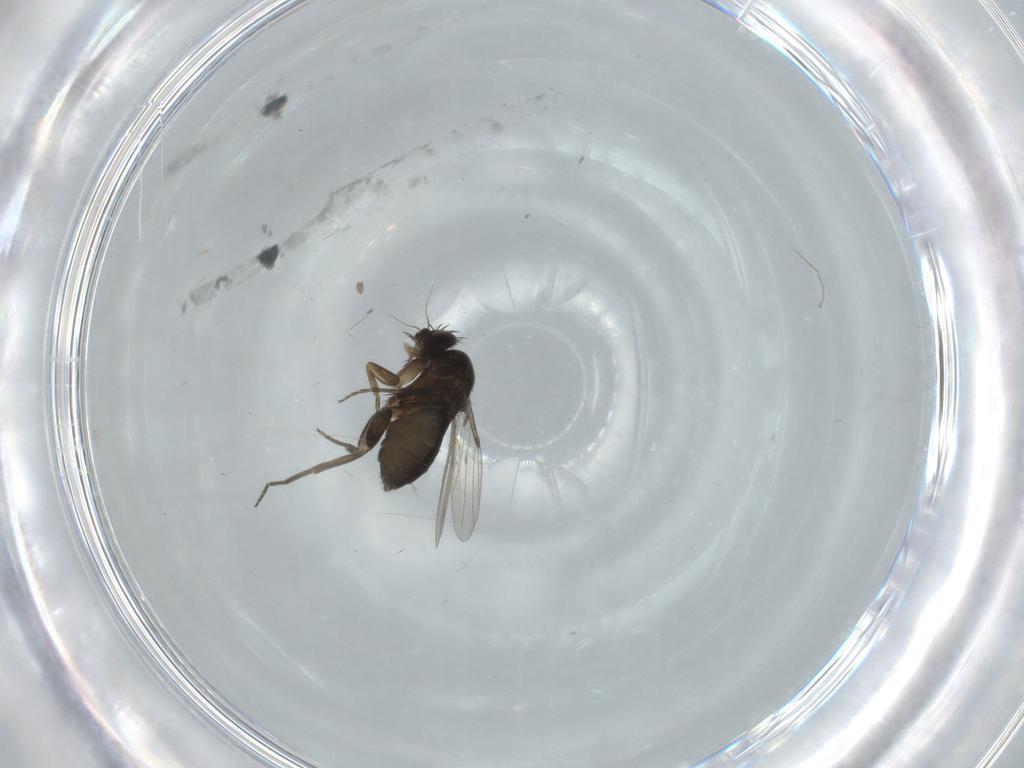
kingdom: Animalia
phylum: Arthropoda
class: Insecta
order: Diptera
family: Phoridae
